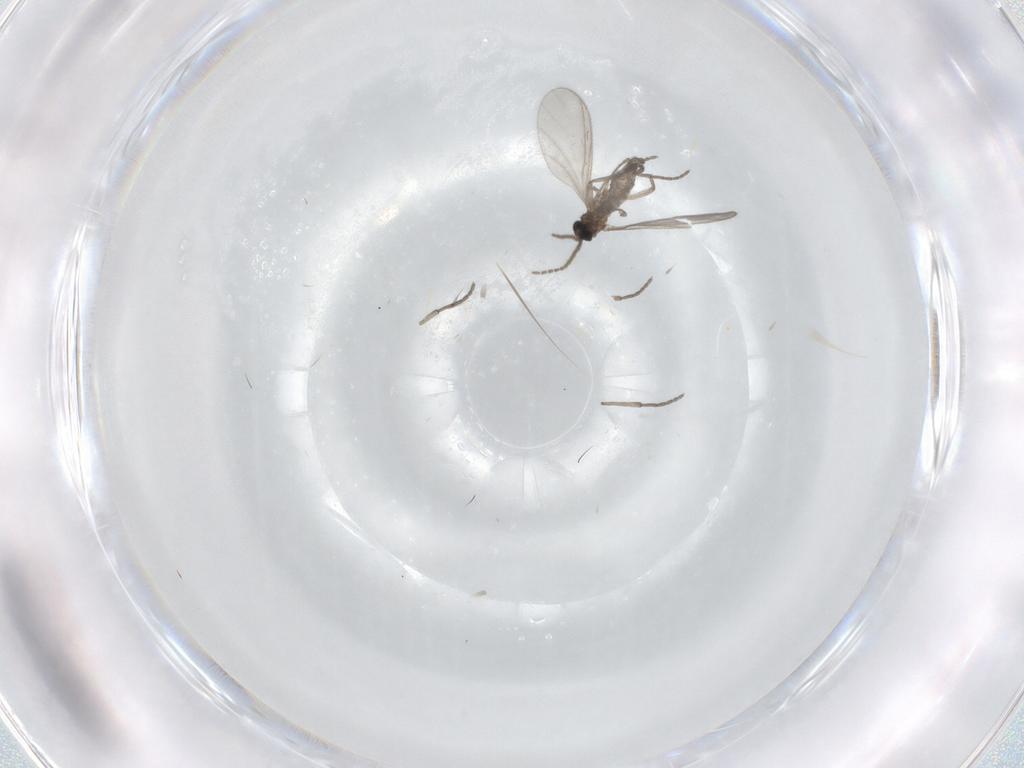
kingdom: Animalia
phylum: Arthropoda
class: Insecta
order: Diptera
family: Sciaridae
